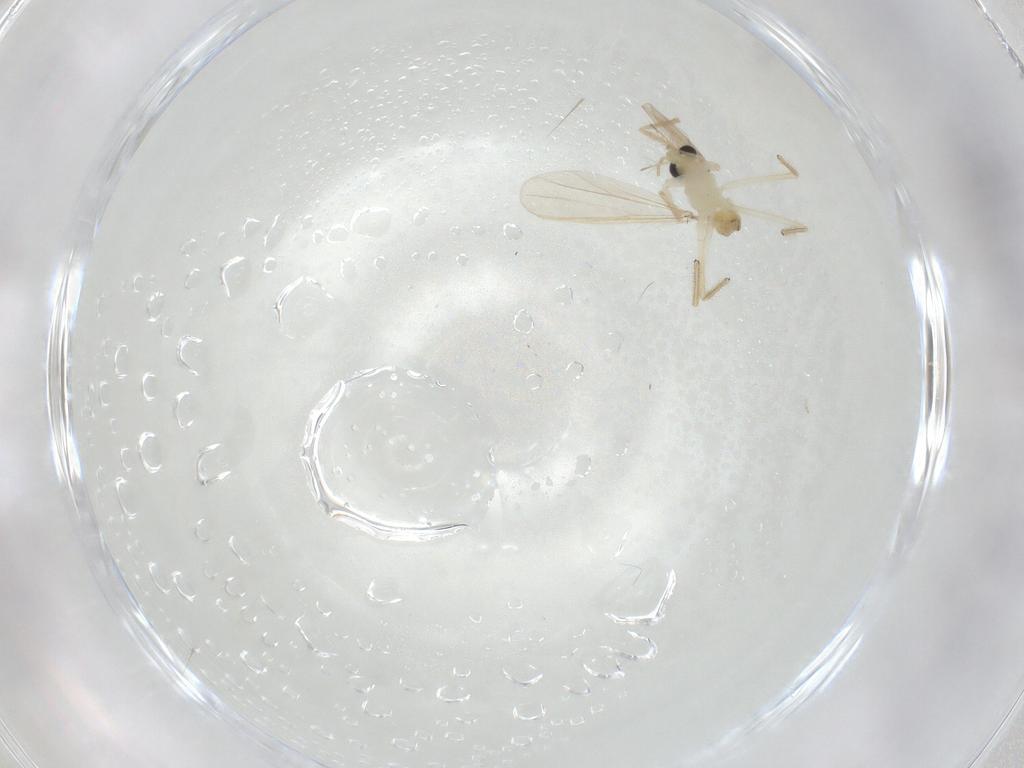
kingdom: Animalia
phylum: Arthropoda
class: Insecta
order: Diptera
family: Chironomidae
